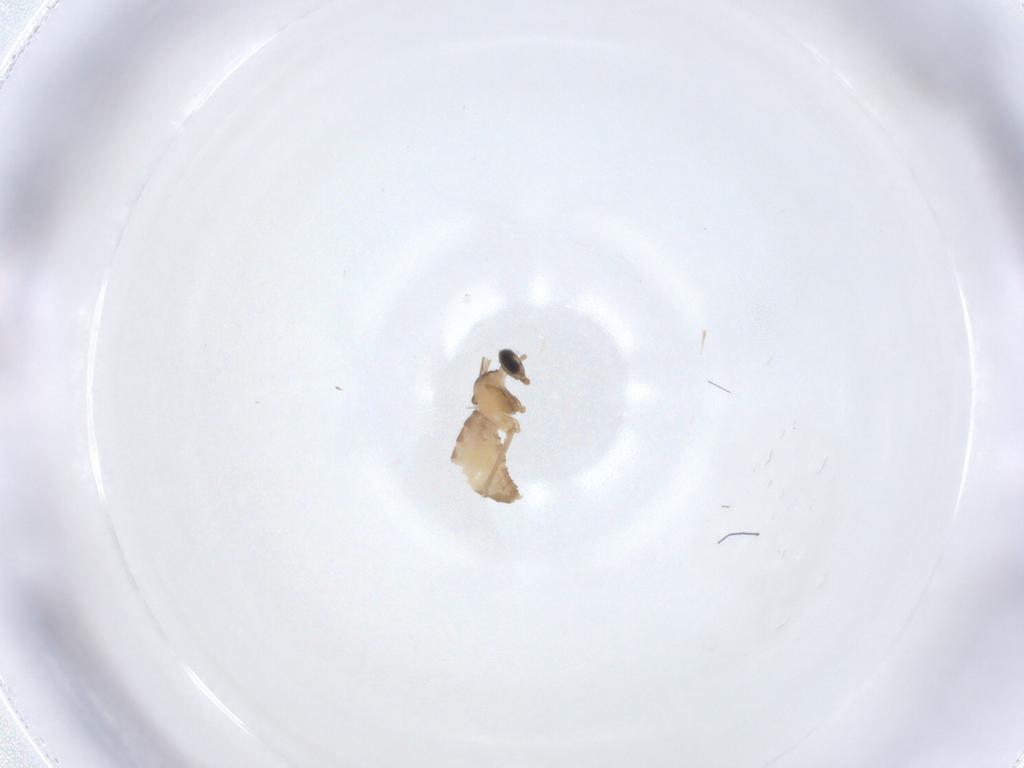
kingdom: Animalia
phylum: Arthropoda
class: Insecta
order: Diptera
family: Cecidomyiidae
